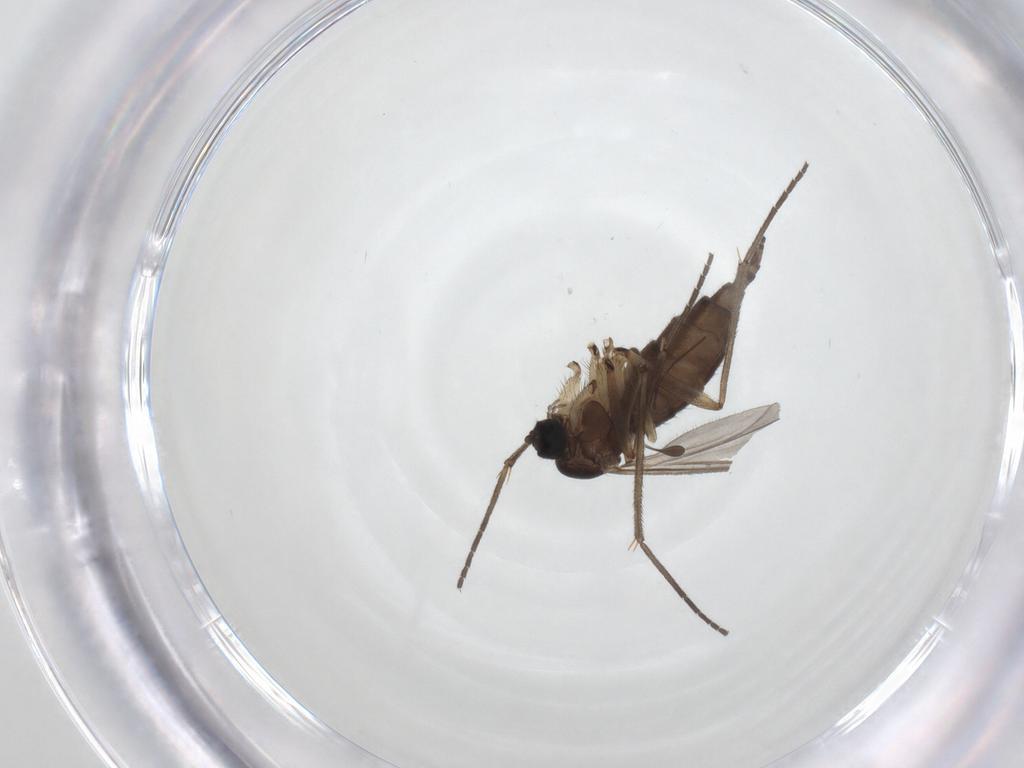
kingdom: Animalia
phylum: Arthropoda
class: Insecta
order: Diptera
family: Sciaridae
